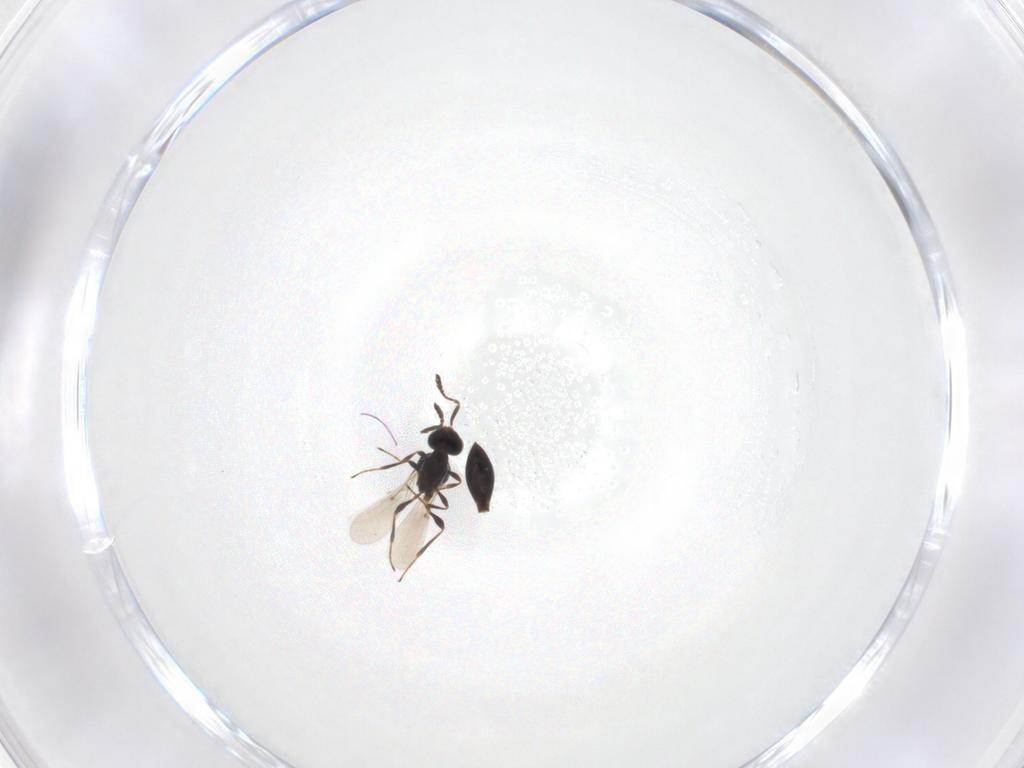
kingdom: Animalia
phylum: Arthropoda
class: Insecta
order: Hymenoptera
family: Platygastridae
